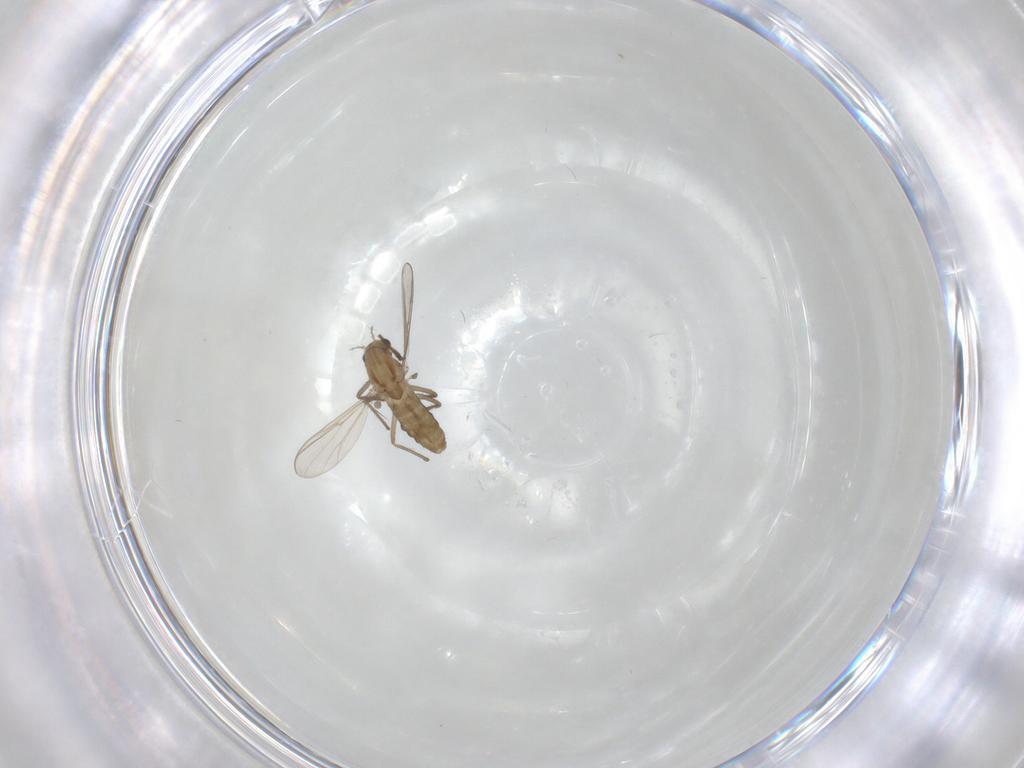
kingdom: Animalia
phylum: Arthropoda
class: Insecta
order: Diptera
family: Chironomidae
